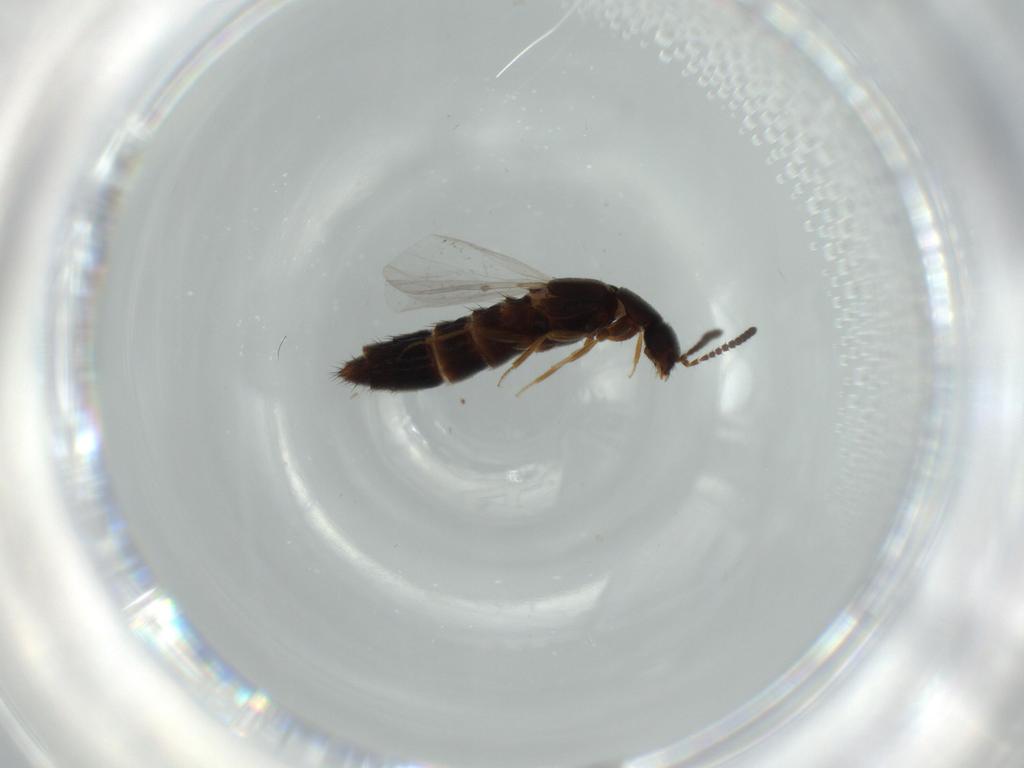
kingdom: Animalia
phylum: Arthropoda
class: Insecta
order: Coleoptera
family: Elateridae
